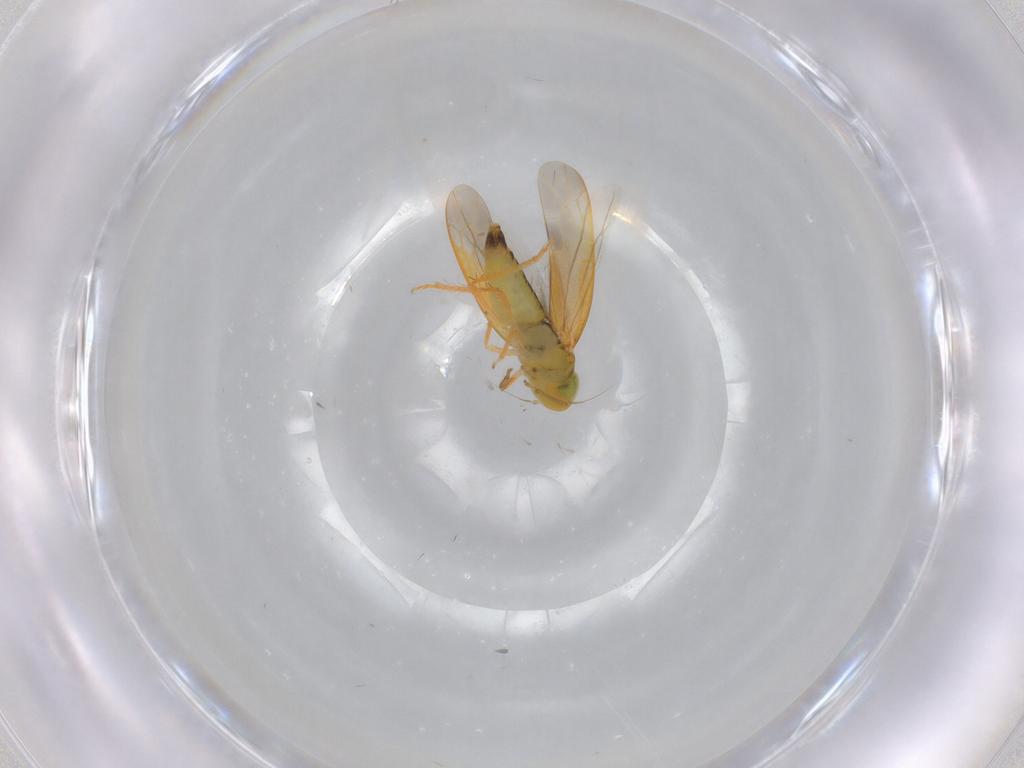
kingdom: Animalia
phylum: Arthropoda
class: Insecta
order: Hemiptera
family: Cicadellidae
